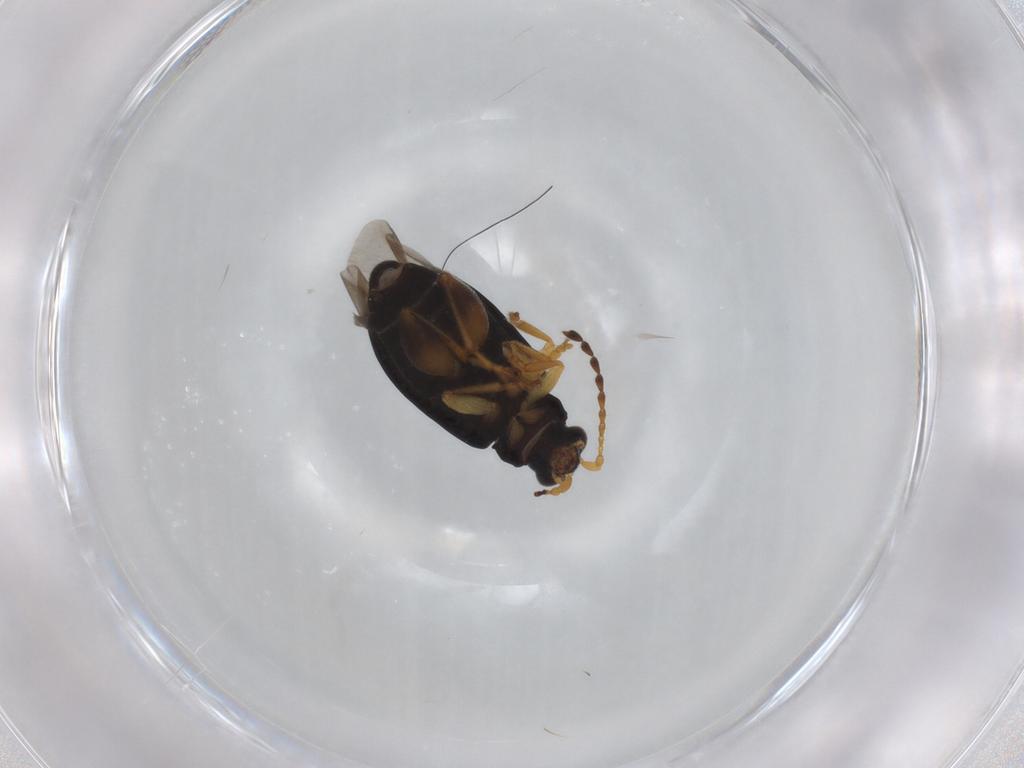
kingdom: Animalia
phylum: Arthropoda
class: Insecta
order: Coleoptera
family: Chrysomelidae
